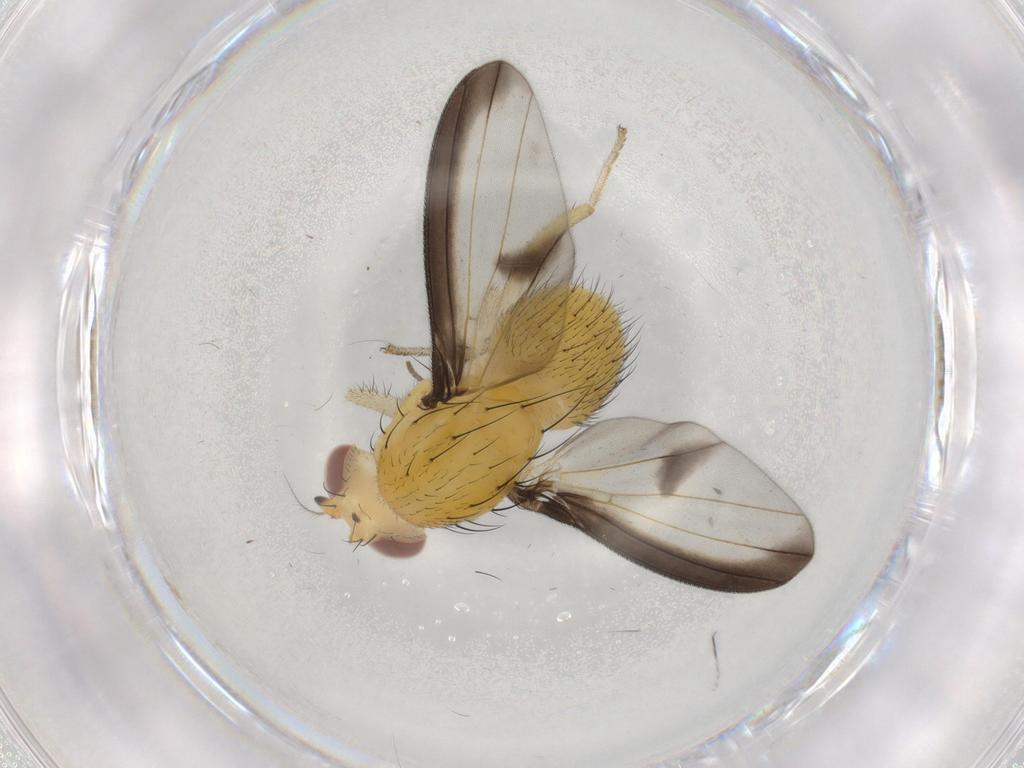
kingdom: Animalia
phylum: Arthropoda
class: Insecta
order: Diptera
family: Lauxaniidae
